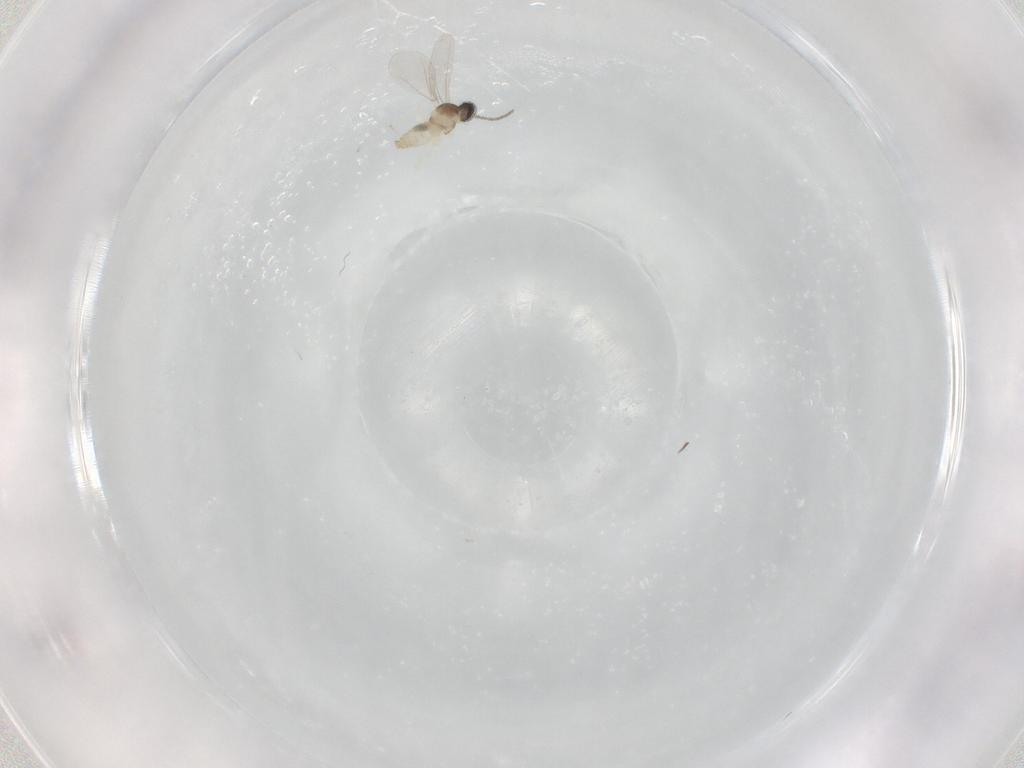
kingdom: Animalia
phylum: Arthropoda
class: Insecta
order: Diptera
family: Cecidomyiidae
